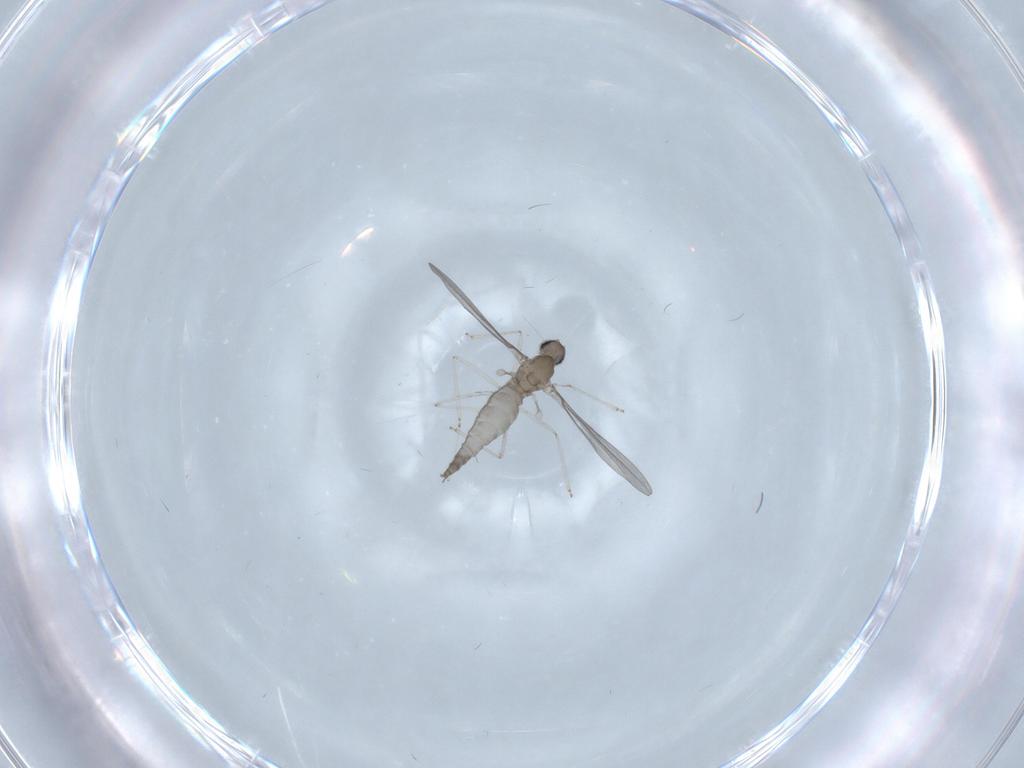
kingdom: Animalia
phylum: Arthropoda
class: Insecta
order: Diptera
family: Cecidomyiidae
